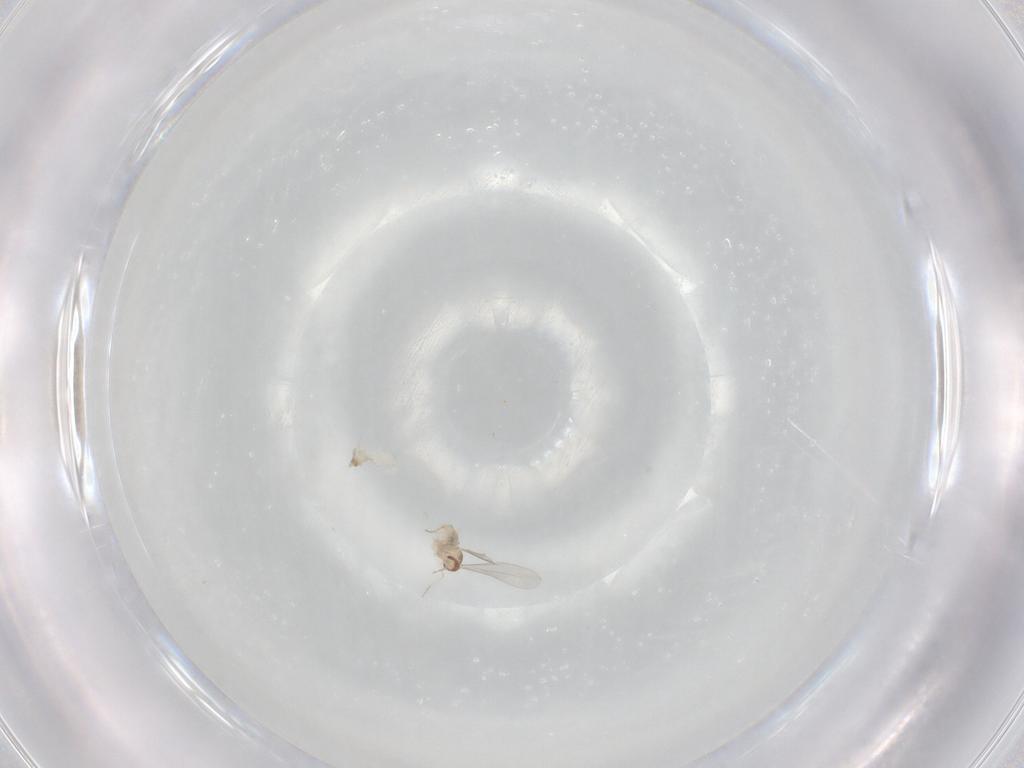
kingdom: Animalia
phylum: Arthropoda
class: Insecta
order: Diptera
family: Cecidomyiidae
